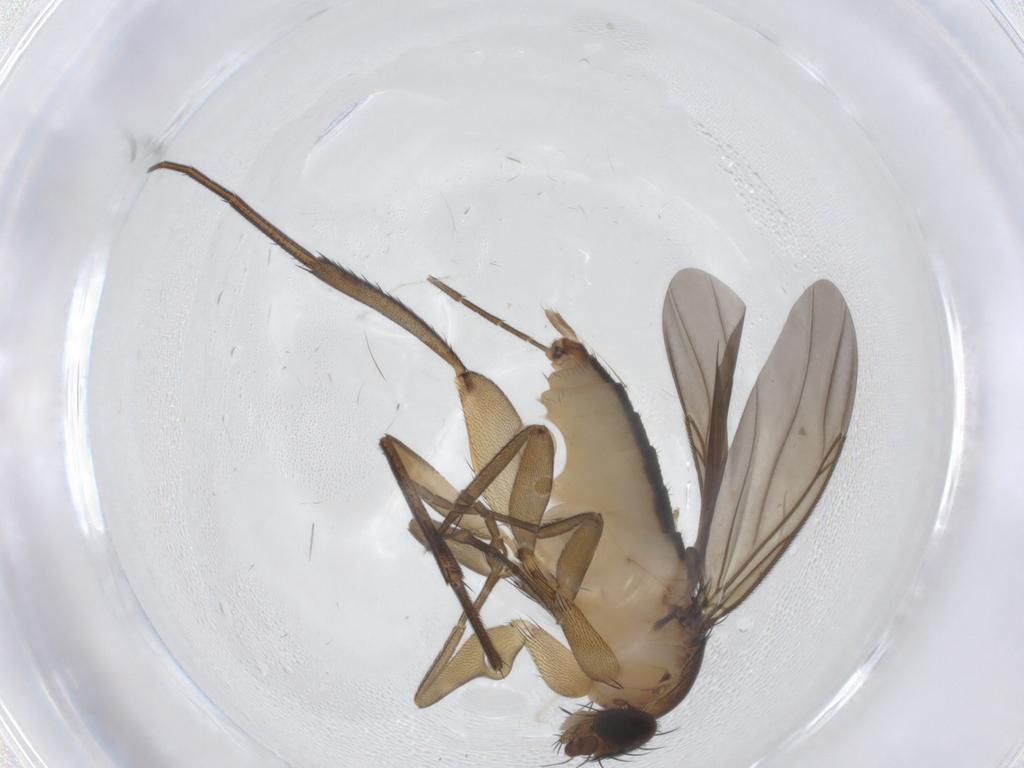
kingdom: Animalia
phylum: Arthropoda
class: Insecta
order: Diptera
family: Phoridae
